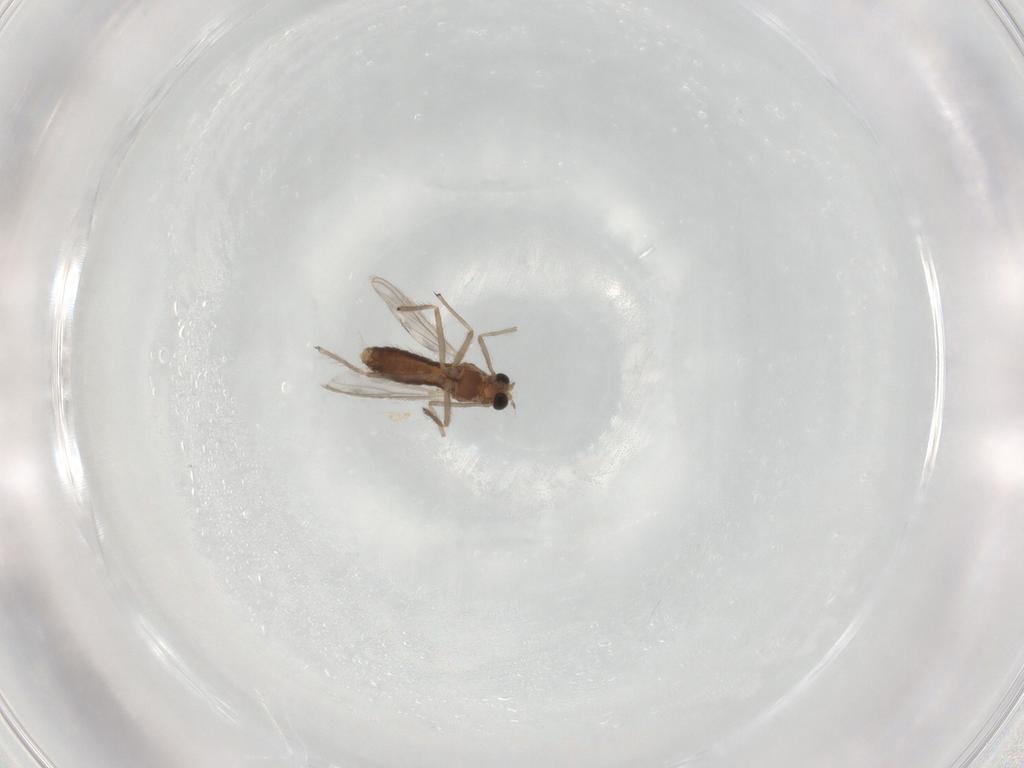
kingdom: Animalia
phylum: Arthropoda
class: Insecta
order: Diptera
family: Chironomidae
